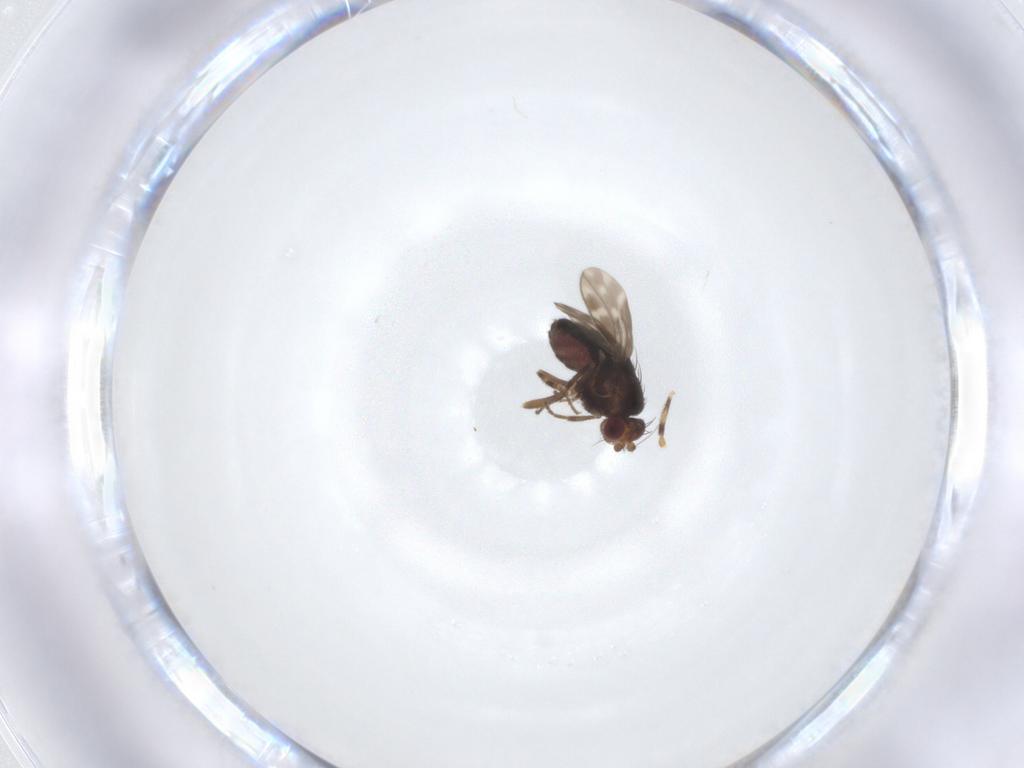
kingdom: Animalia
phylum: Arthropoda
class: Insecta
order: Diptera
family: Sphaeroceridae
